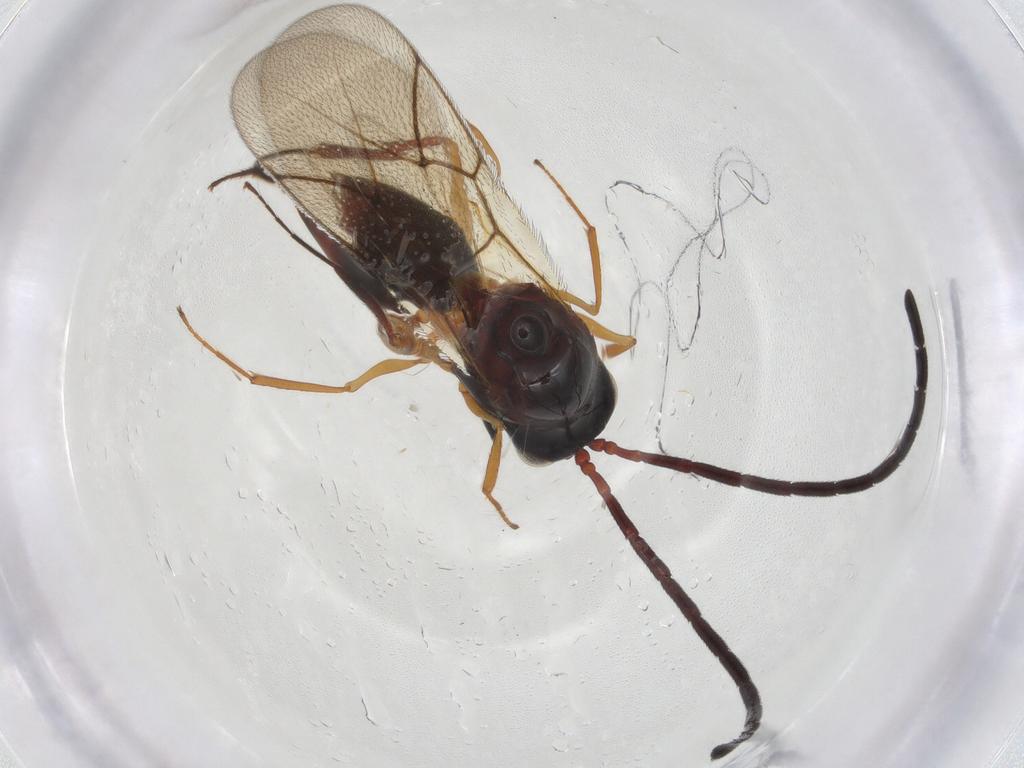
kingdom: Animalia
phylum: Arthropoda
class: Insecta
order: Hymenoptera
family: Figitidae
